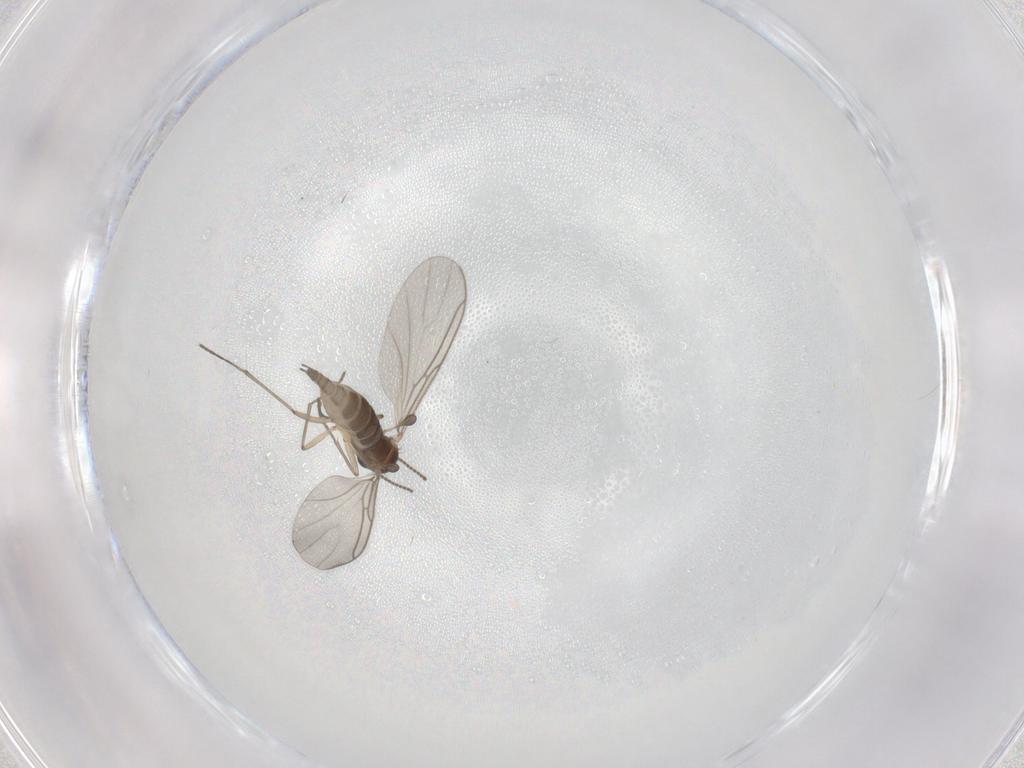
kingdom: Animalia
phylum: Arthropoda
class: Insecta
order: Diptera
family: Sciaridae
